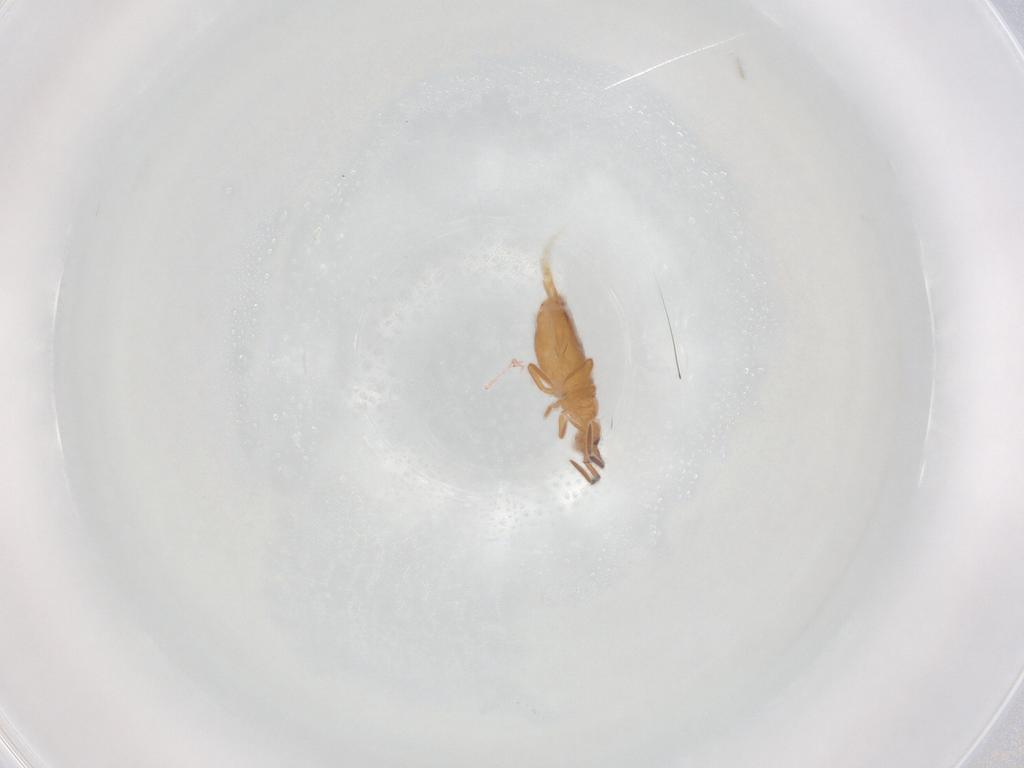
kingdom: Animalia
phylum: Arthropoda
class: Collembola
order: Entomobryomorpha
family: Entomobryidae
